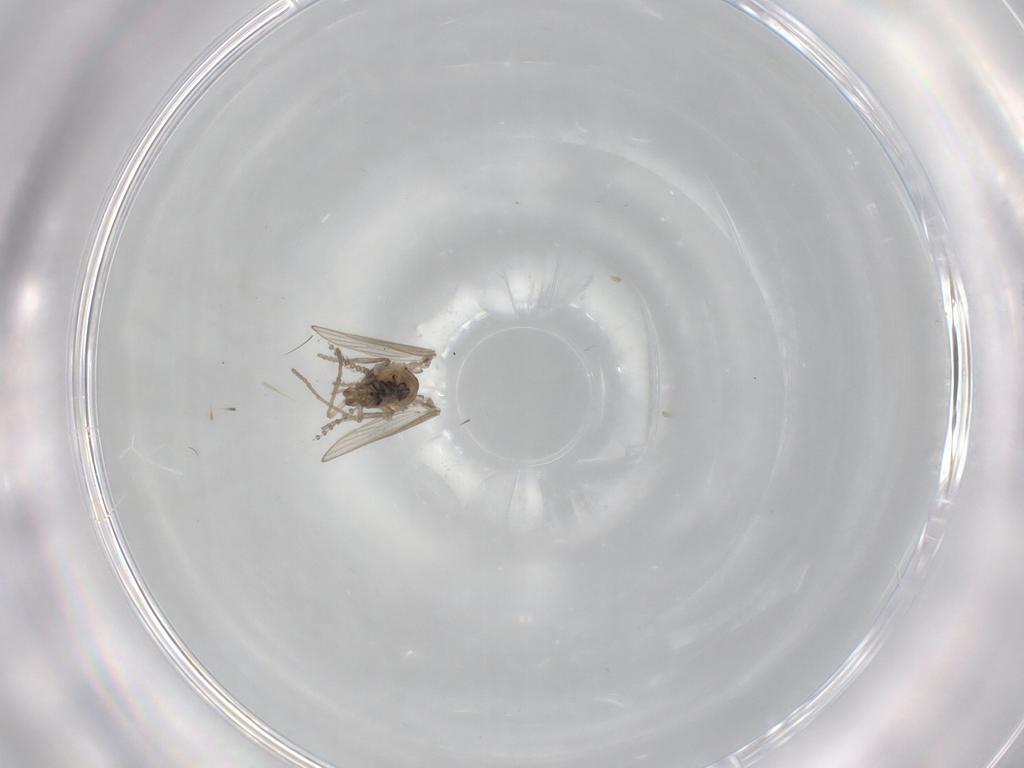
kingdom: Animalia
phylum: Arthropoda
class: Insecta
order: Diptera
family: Psychodidae
